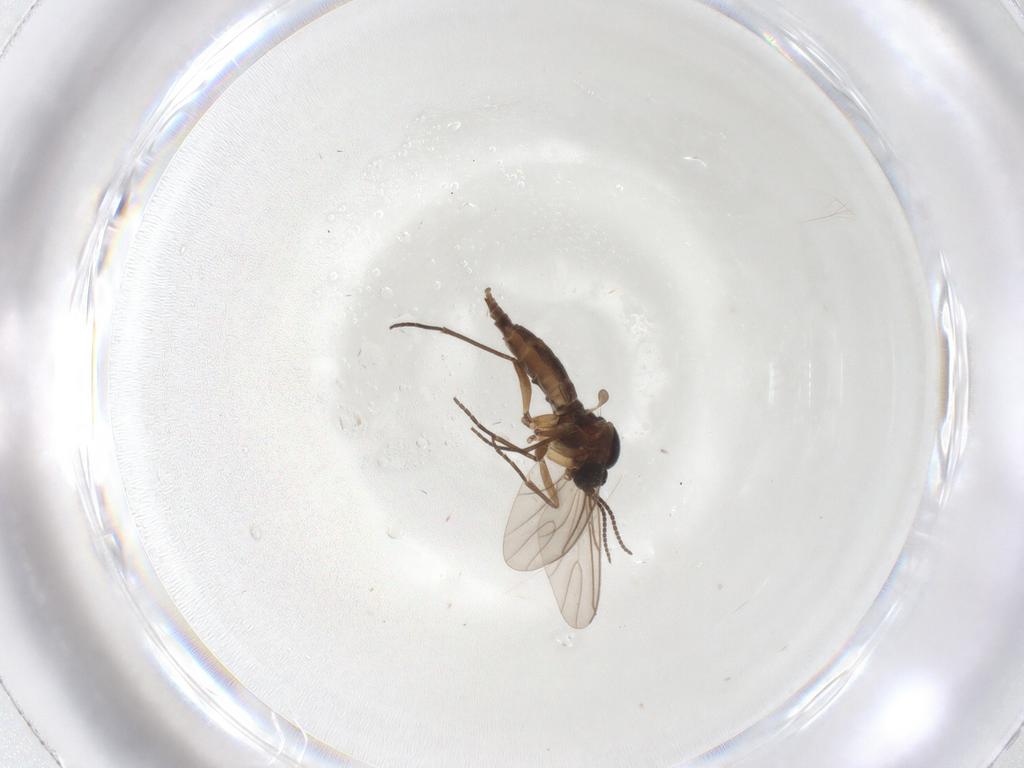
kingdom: Animalia
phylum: Arthropoda
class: Insecta
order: Diptera
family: Sciaridae
